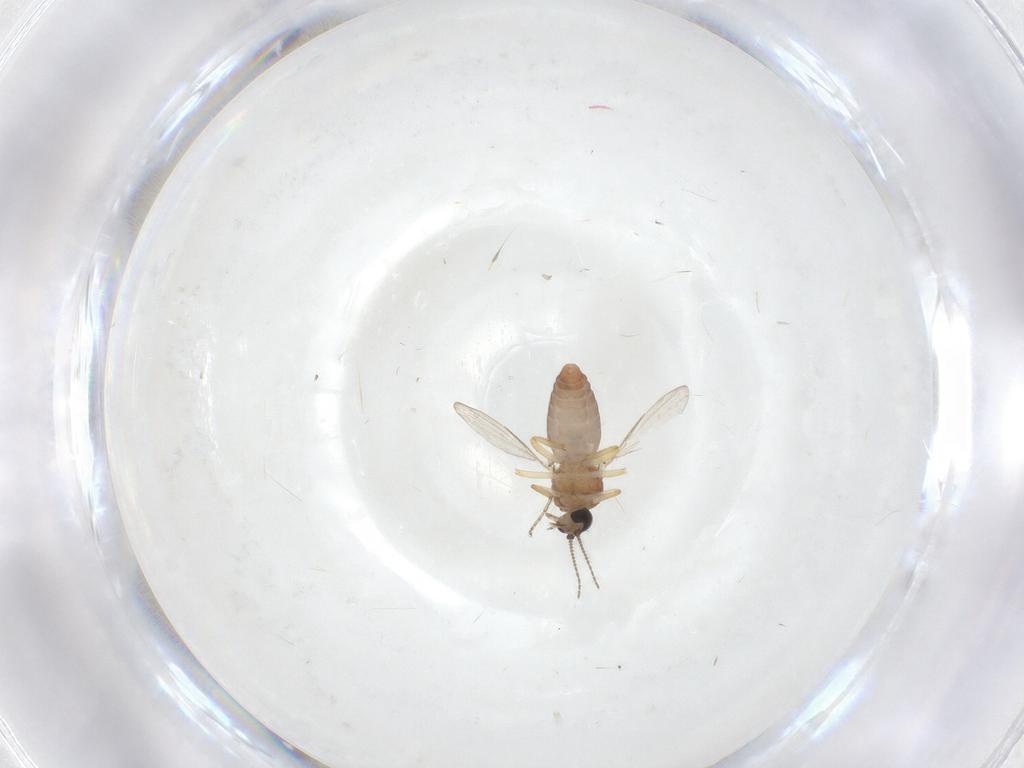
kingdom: Animalia
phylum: Arthropoda
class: Insecta
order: Diptera
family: Ceratopogonidae
